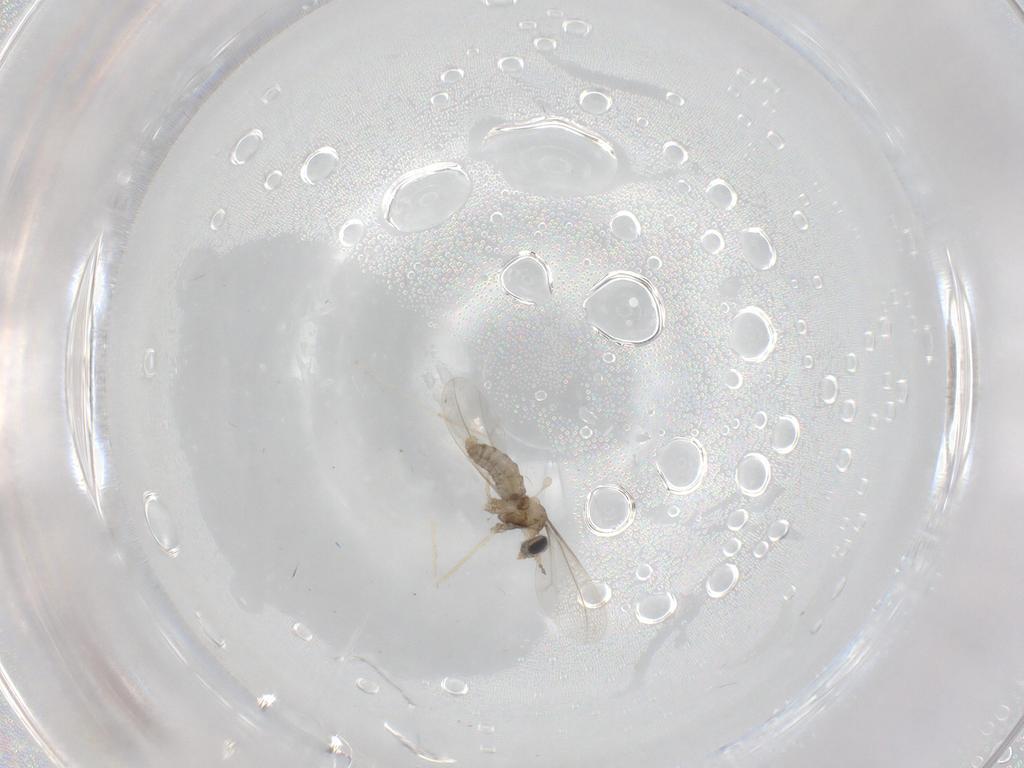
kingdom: Animalia
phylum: Arthropoda
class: Insecta
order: Diptera
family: Cecidomyiidae
